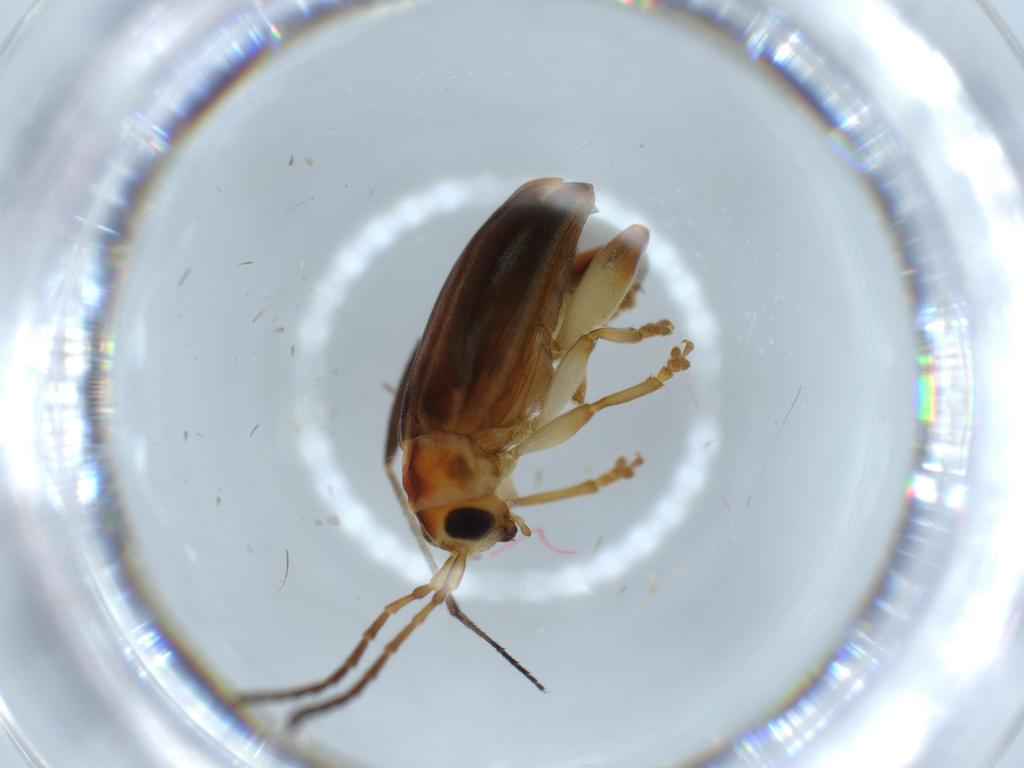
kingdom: Animalia
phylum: Arthropoda
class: Insecta
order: Coleoptera
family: Chrysomelidae
